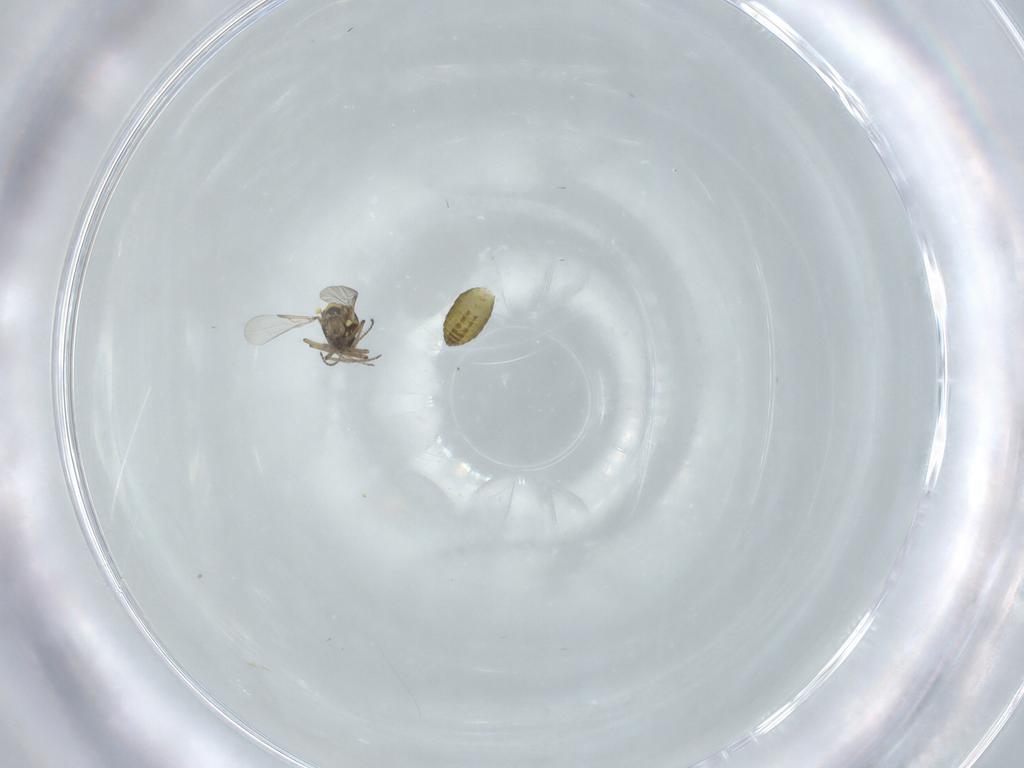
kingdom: Animalia
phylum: Arthropoda
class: Insecta
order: Diptera
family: Ceratopogonidae
